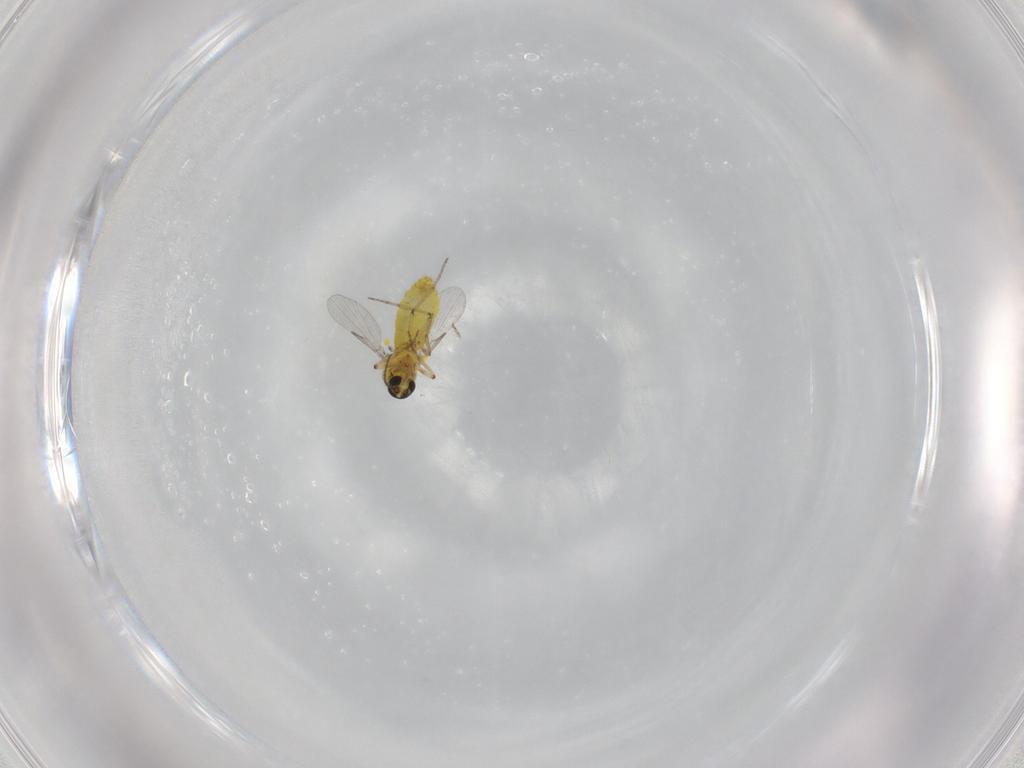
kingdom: Animalia
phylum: Arthropoda
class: Insecta
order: Diptera
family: Ceratopogonidae
